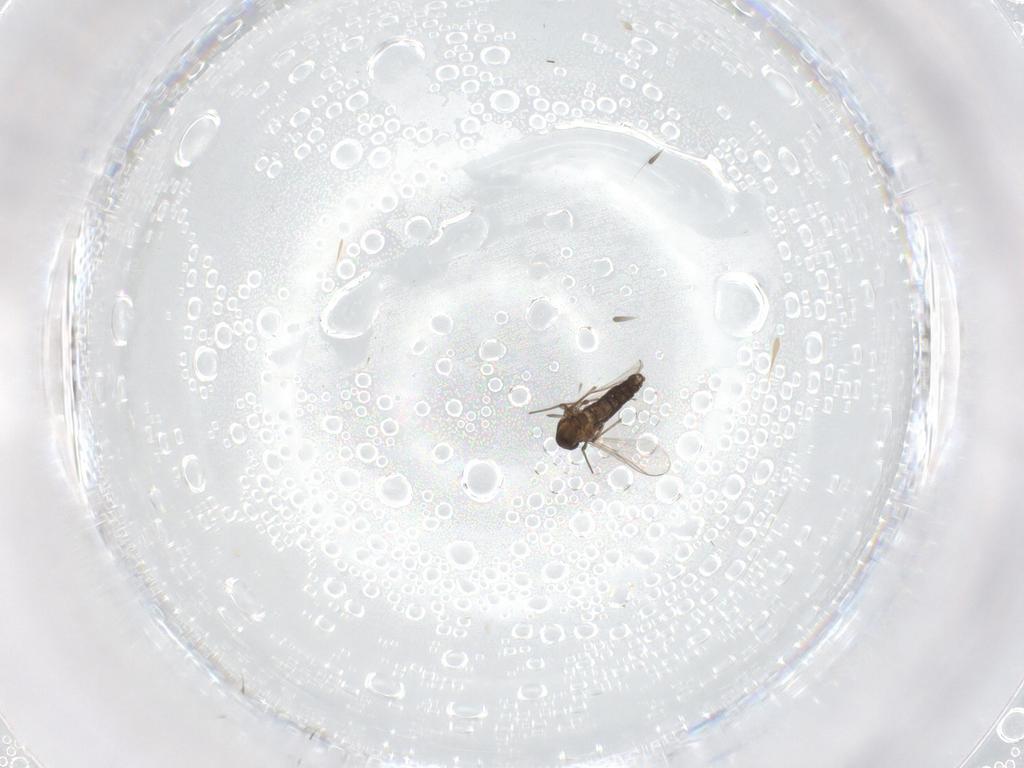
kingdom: Animalia
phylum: Arthropoda
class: Insecta
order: Diptera
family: Chironomidae
